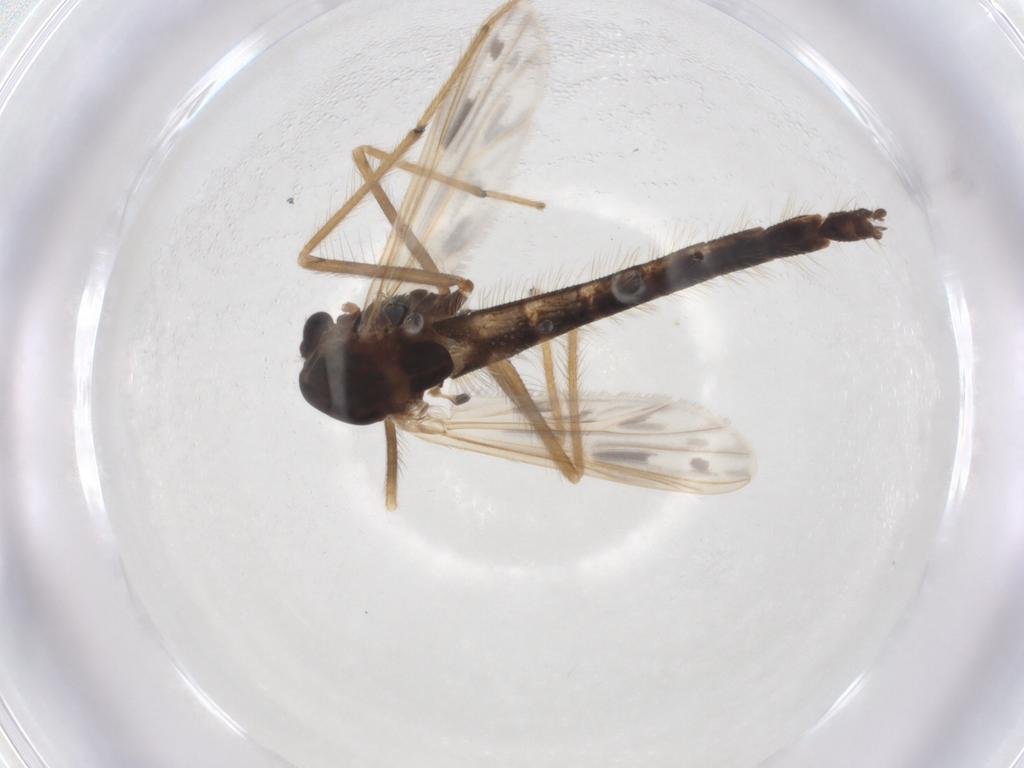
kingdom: Animalia
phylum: Arthropoda
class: Insecta
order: Diptera
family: Chironomidae
